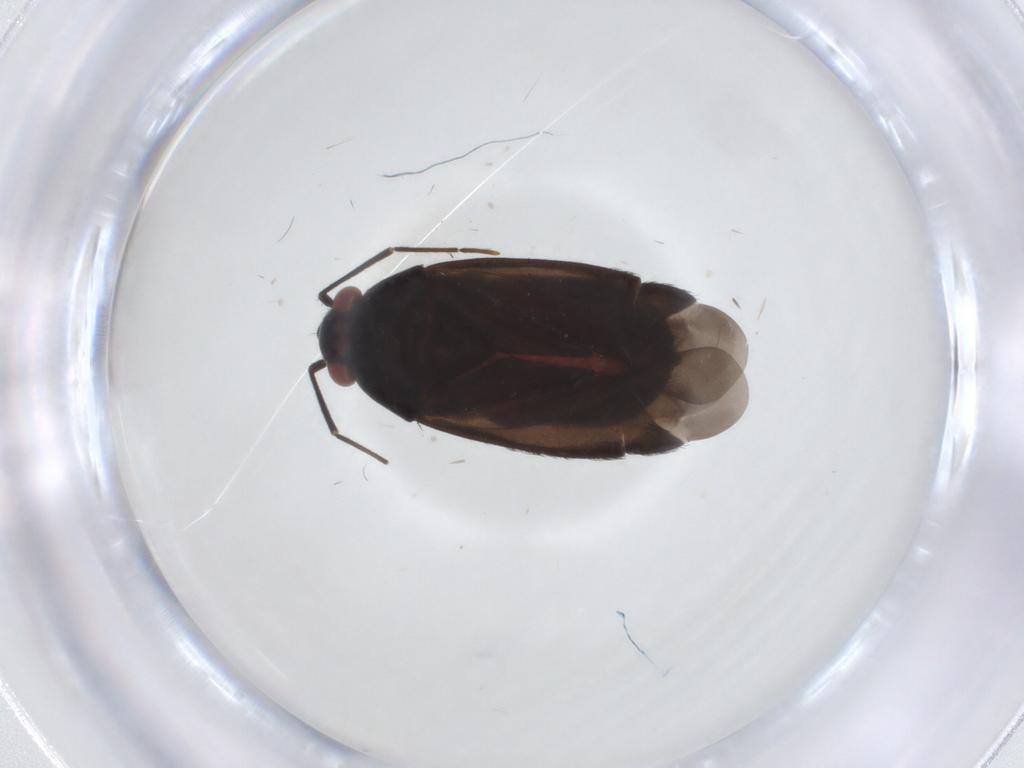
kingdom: Animalia
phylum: Arthropoda
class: Insecta
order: Hemiptera
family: Miridae
